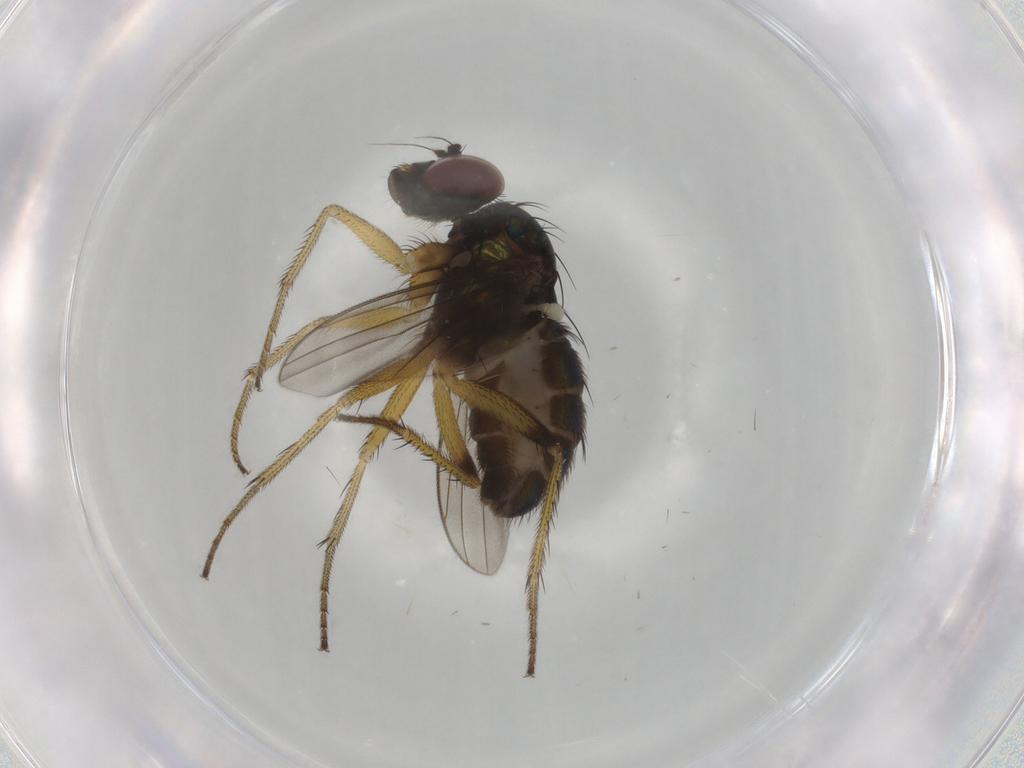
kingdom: Animalia
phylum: Arthropoda
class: Insecta
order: Diptera
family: Dolichopodidae
